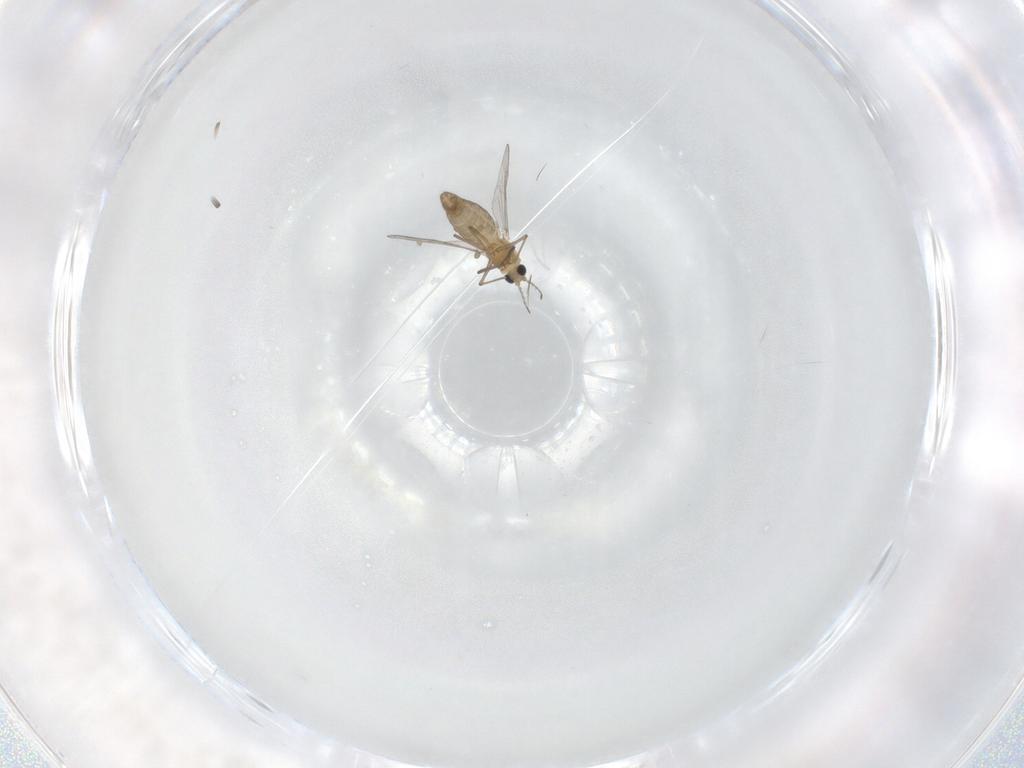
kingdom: Animalia
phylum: Arthropoda
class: Insecta
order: Diptera
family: Chironomidae
